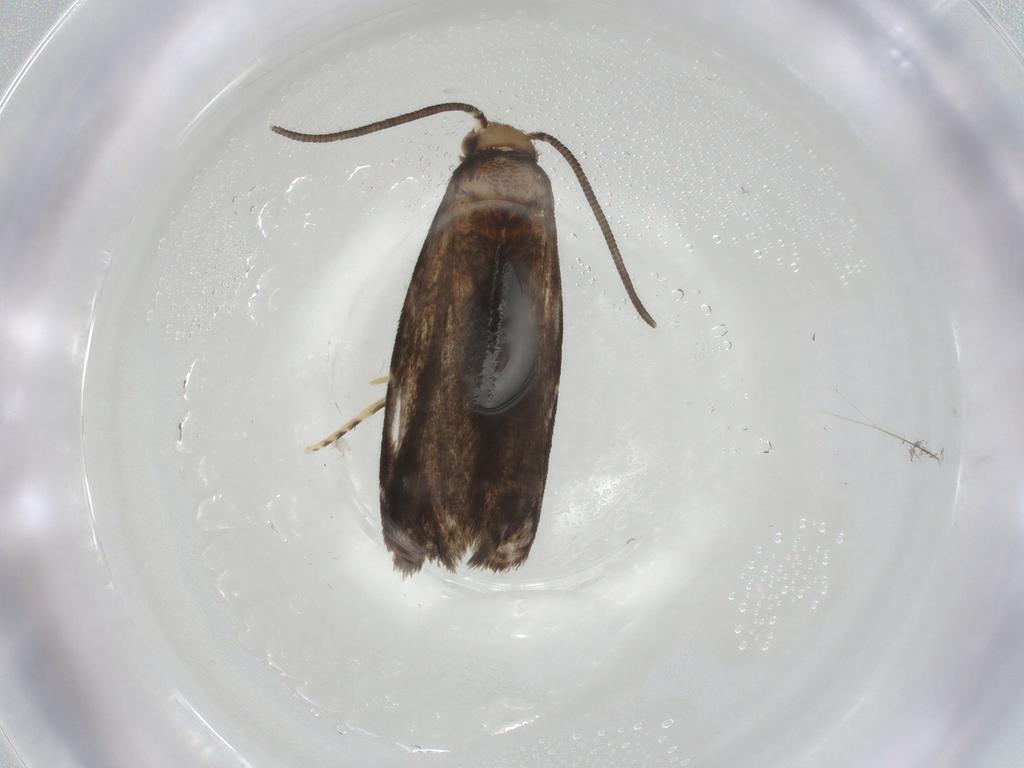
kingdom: Animalia
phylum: Arthropoda
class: Insecta
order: Lepidoptera
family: Dryadaulidae
